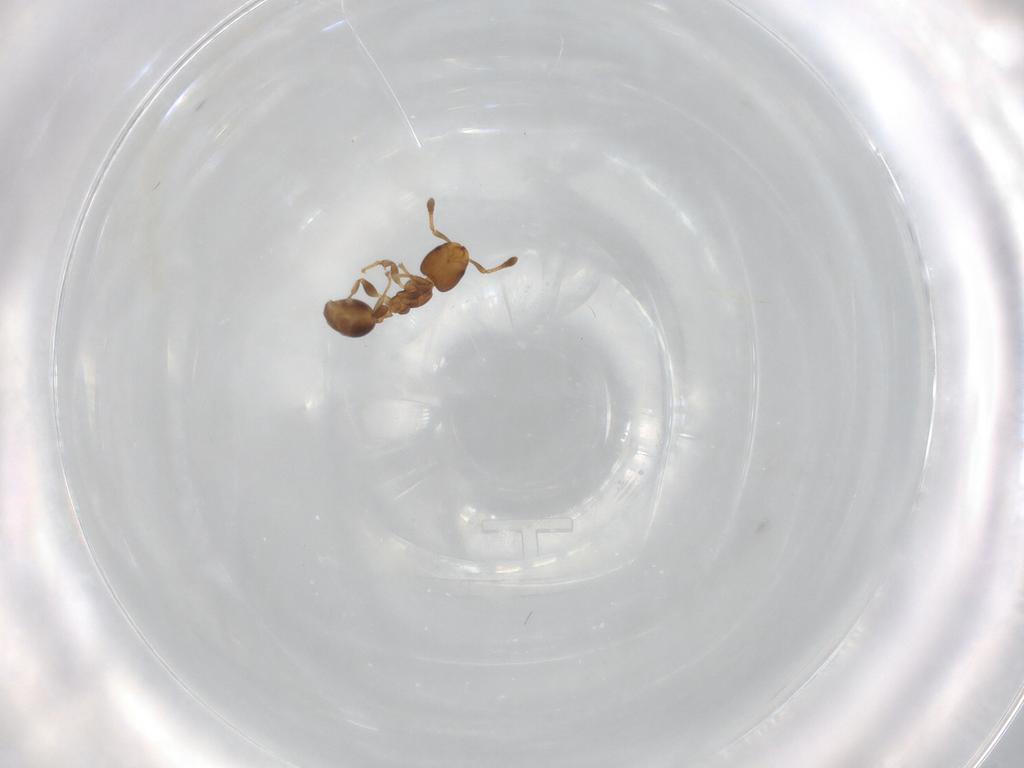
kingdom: Animalia
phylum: Arthropoda
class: Insecta
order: Hymenoptera
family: Formicidae
